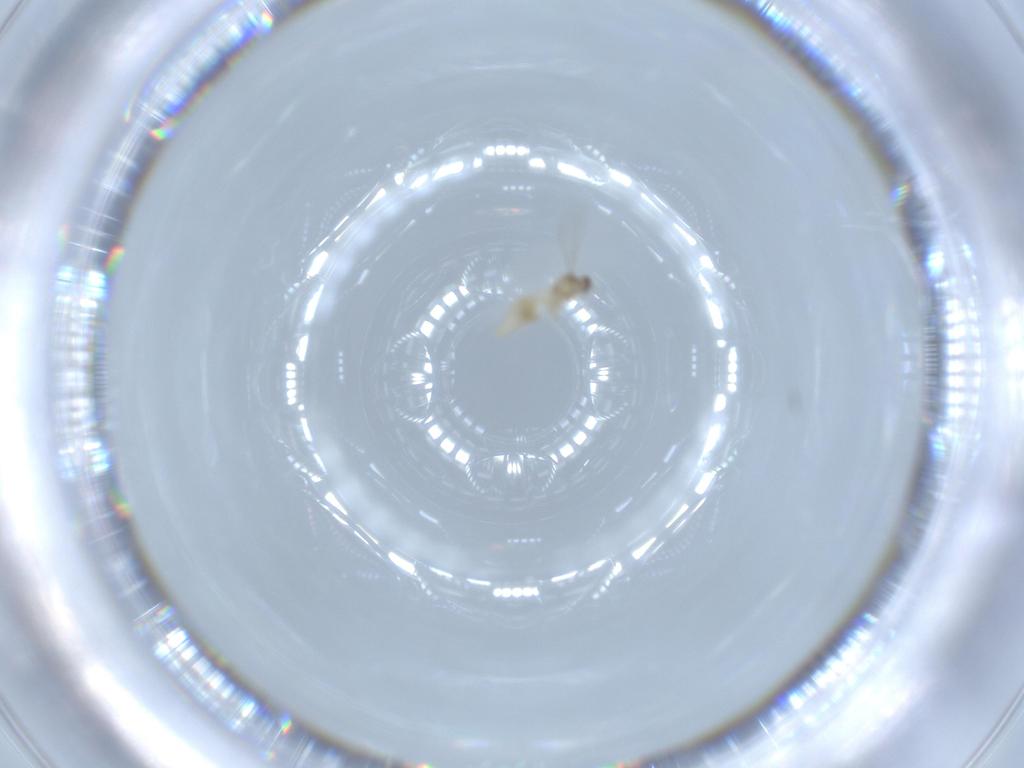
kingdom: Animalia
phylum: Arthropoda
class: Insecta
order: Diptera
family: Cecidomyiidae
